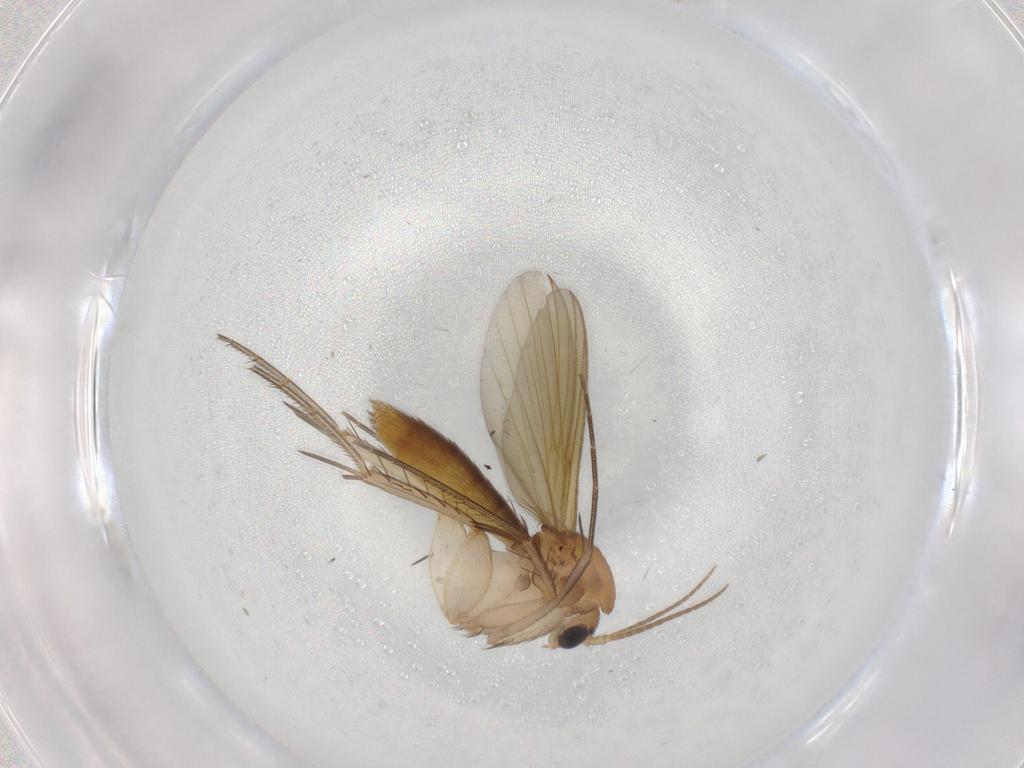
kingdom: Animalia
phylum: Arthropoda
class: Insecta
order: Diptera
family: Mycetophilidae
